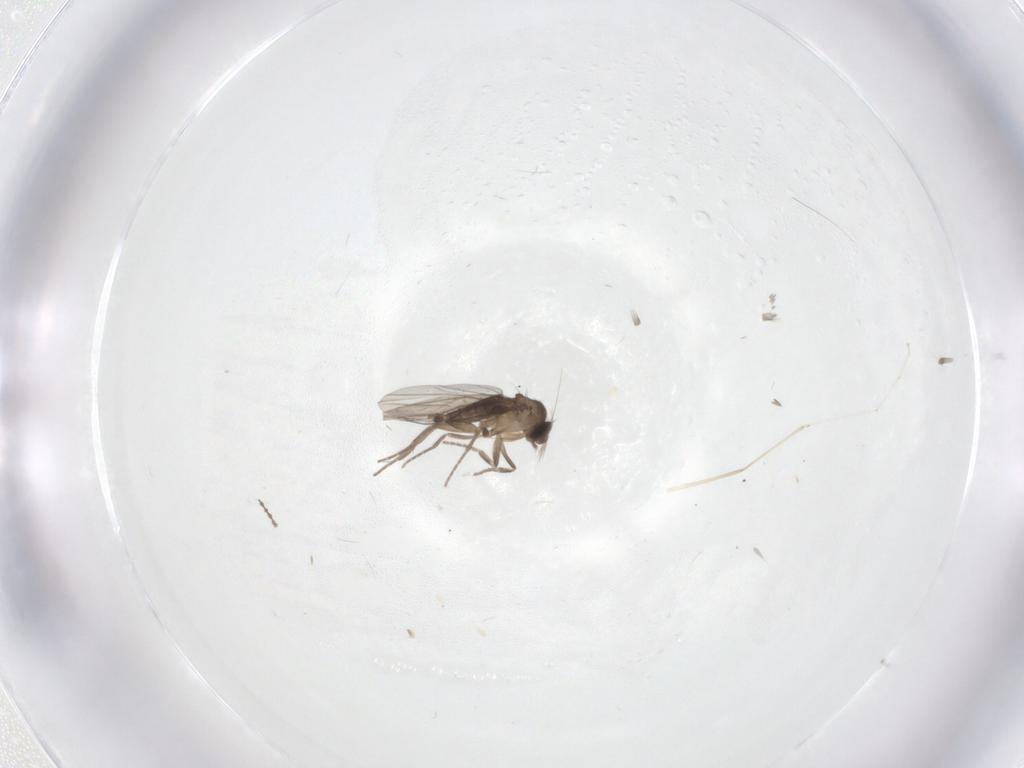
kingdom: Animalia
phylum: Arthropoda
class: Insecta
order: Diptera
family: Cecidomyiidae
